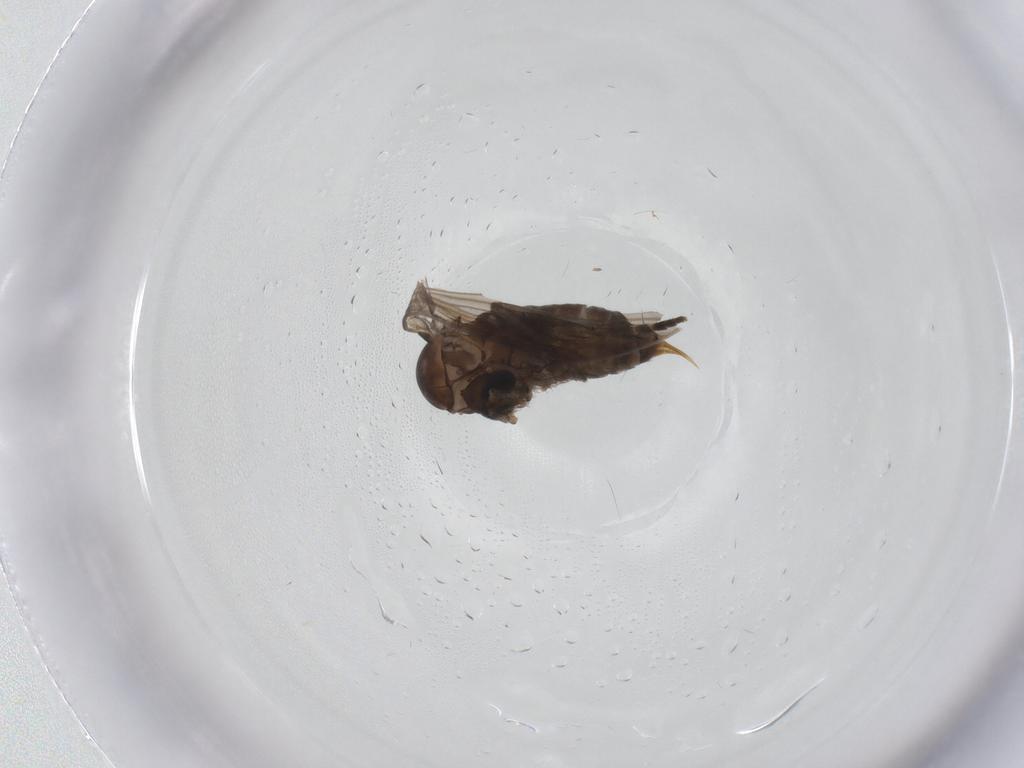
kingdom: Animalia
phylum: Arthropoda
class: Insecta
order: Diptera
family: Psychodidae
